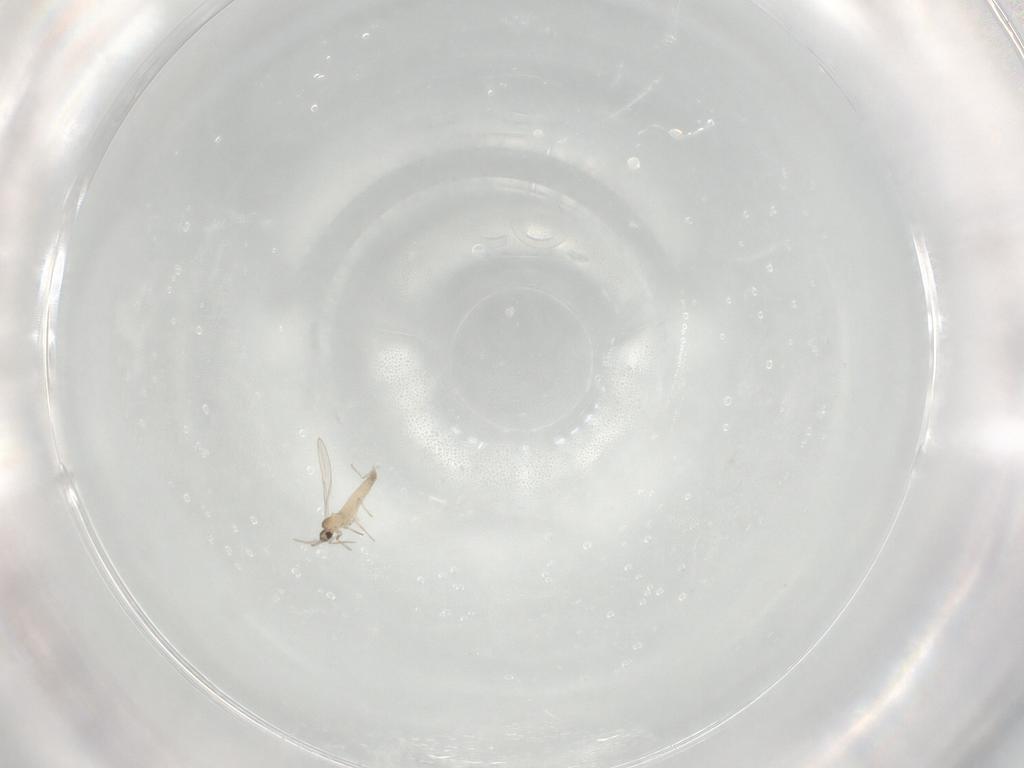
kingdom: Animalia
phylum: Arthropoda
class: Insecta
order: Diptera
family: Cecidomyiidae
